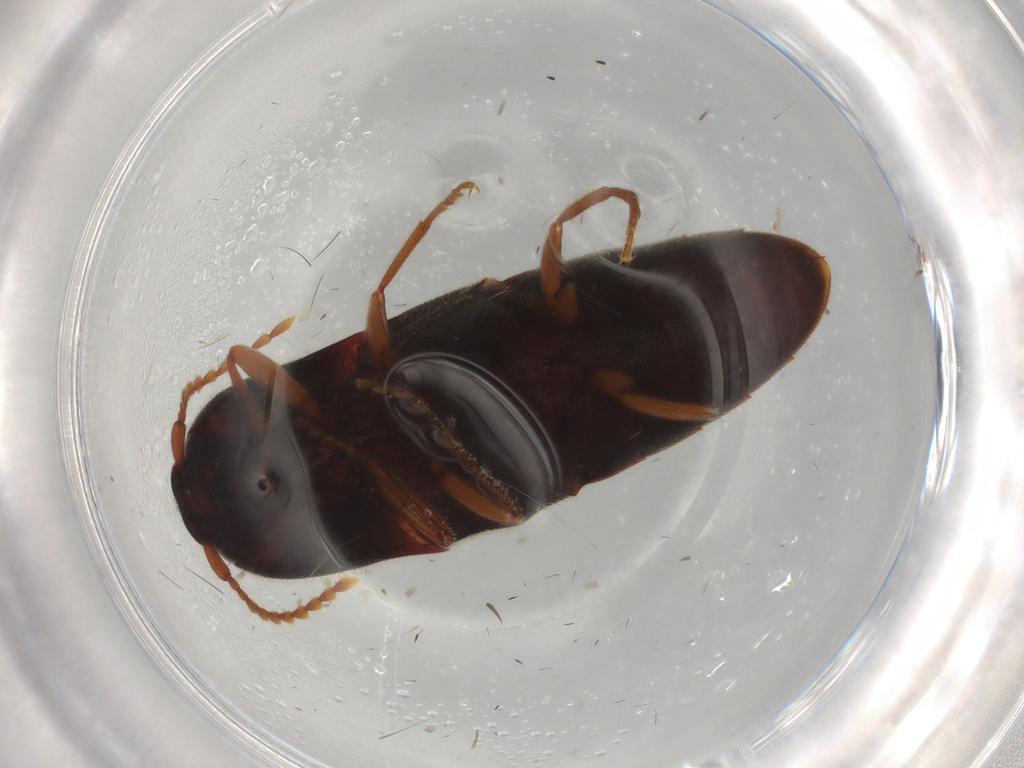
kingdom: Animalia
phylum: Arthropoda
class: Insecta
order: Coleoptera
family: Elateridae
